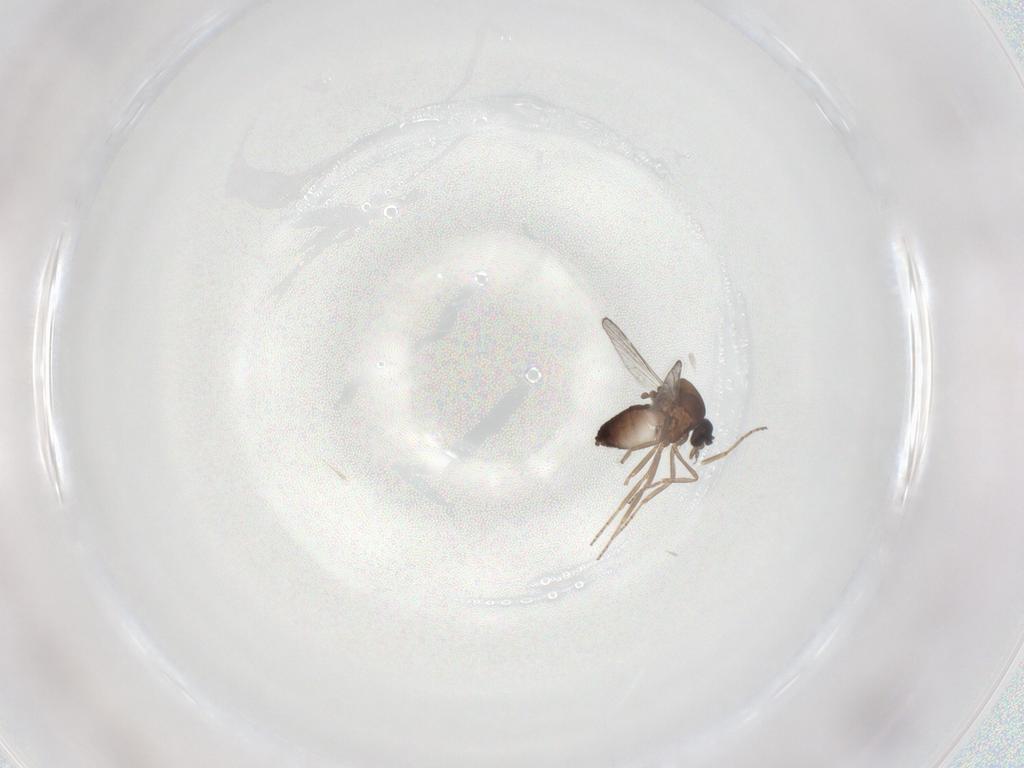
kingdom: Animalia
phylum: Arthropoda
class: Insecta
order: Diptera
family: Ceratopogonidae
